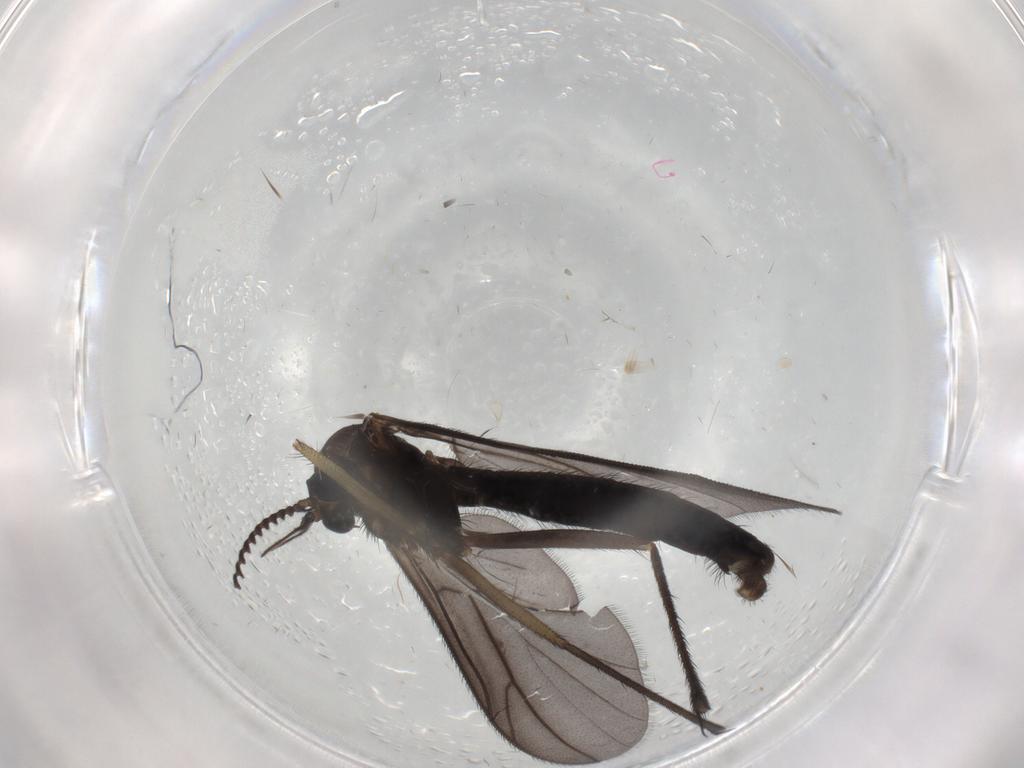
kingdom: Animalia
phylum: Arthropoda
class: Insecta
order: Diptera
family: Ditomyiidae
